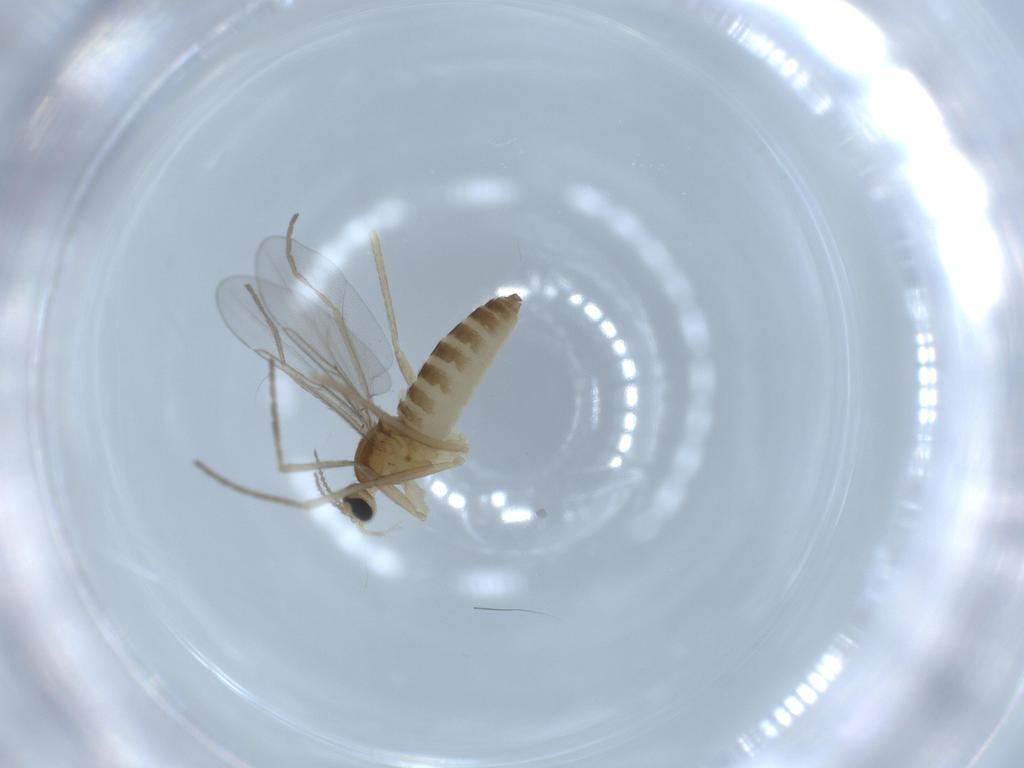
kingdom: Animalia
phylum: Arthropoda
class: Insecta
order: Diptera
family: Cecidomyiidae
